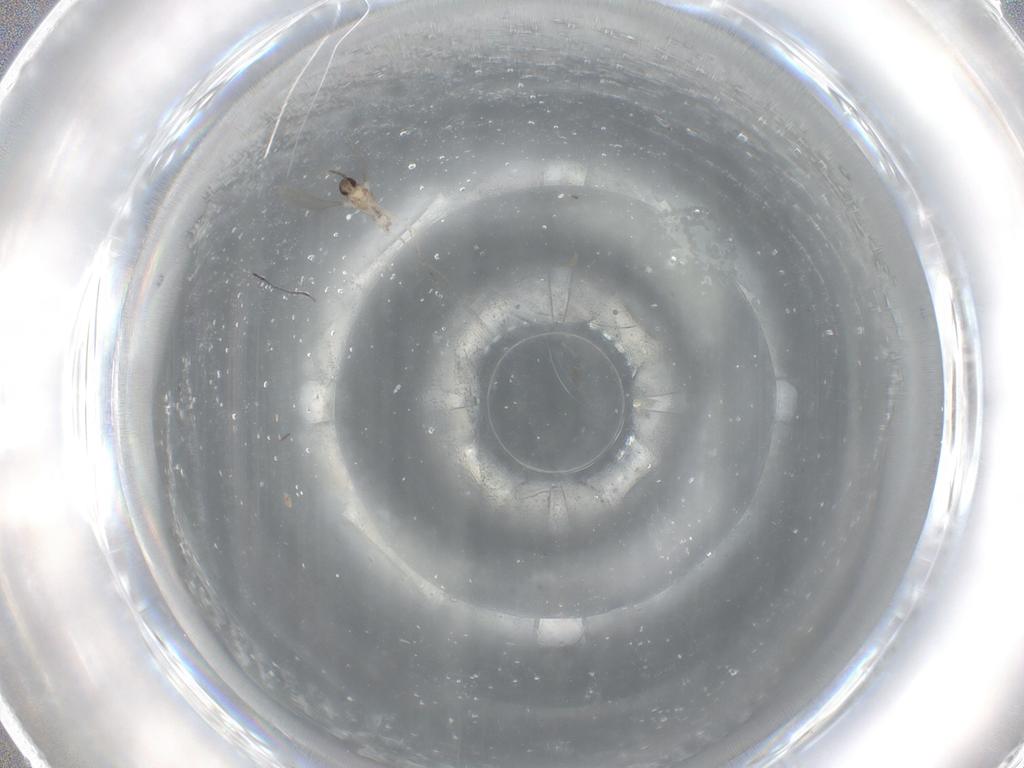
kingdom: Animalia
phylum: Arthropoda
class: Insecta
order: Diptera
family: Cecidomyiidae
